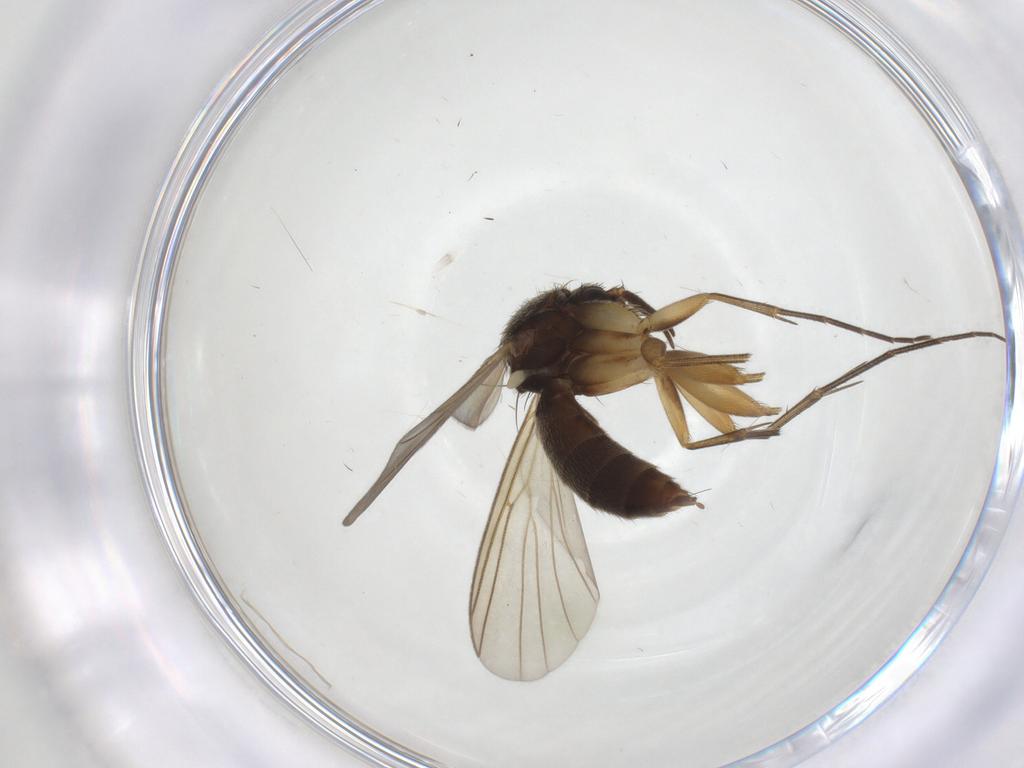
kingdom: Animalia
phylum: Arthropoda
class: Insecta
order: Diptera
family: Mycetophilidae
